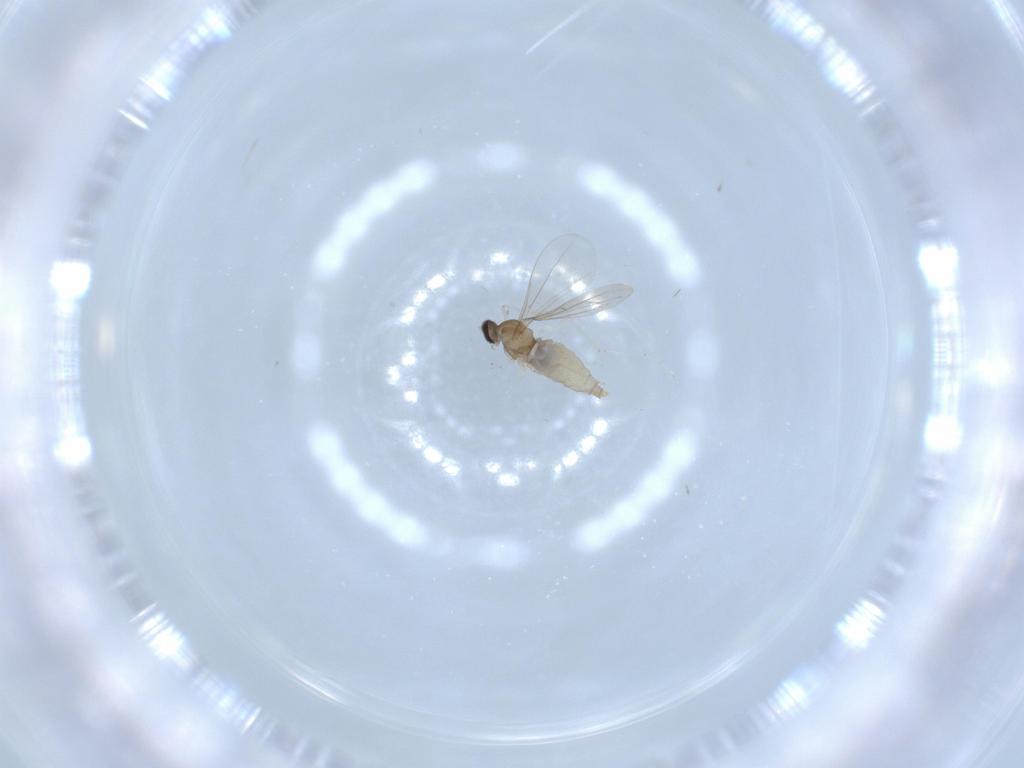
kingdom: Animalia
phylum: Arthropoda
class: Insecta
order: Diptera
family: Cecidomyiidae
